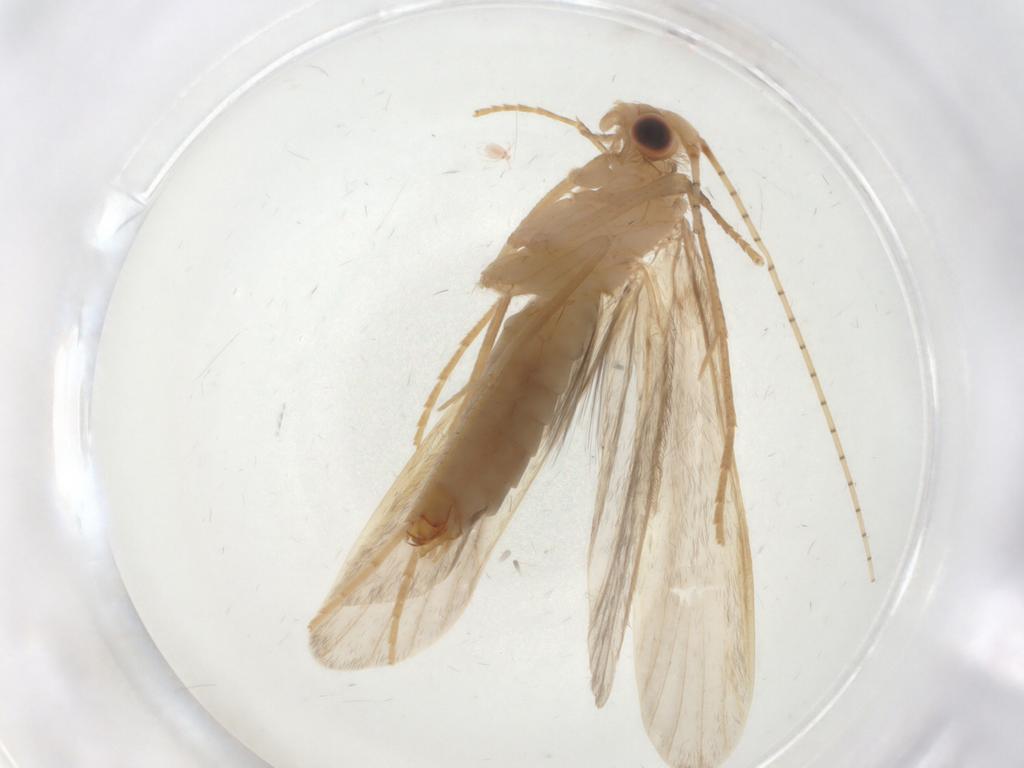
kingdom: Animalia
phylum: Arthropoda
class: Insecta
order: Trichoptera
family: Leptoceridae
